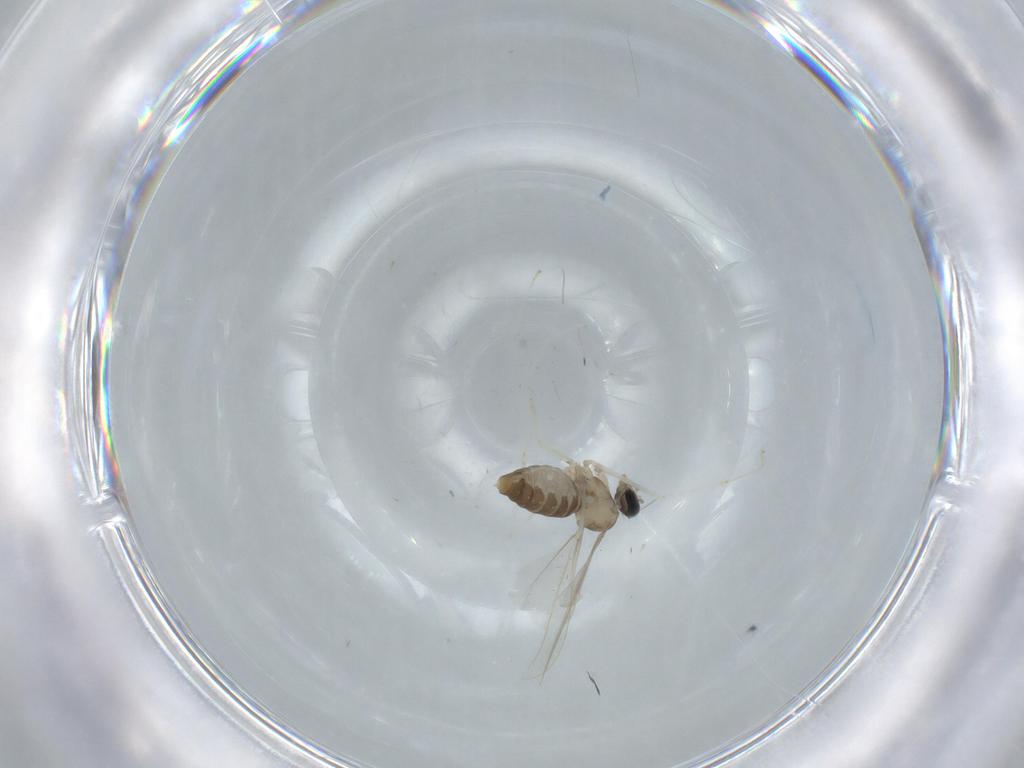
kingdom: Animalia
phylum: Arthropoda
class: Insecta
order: Diptera
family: Cecidomyiidae
